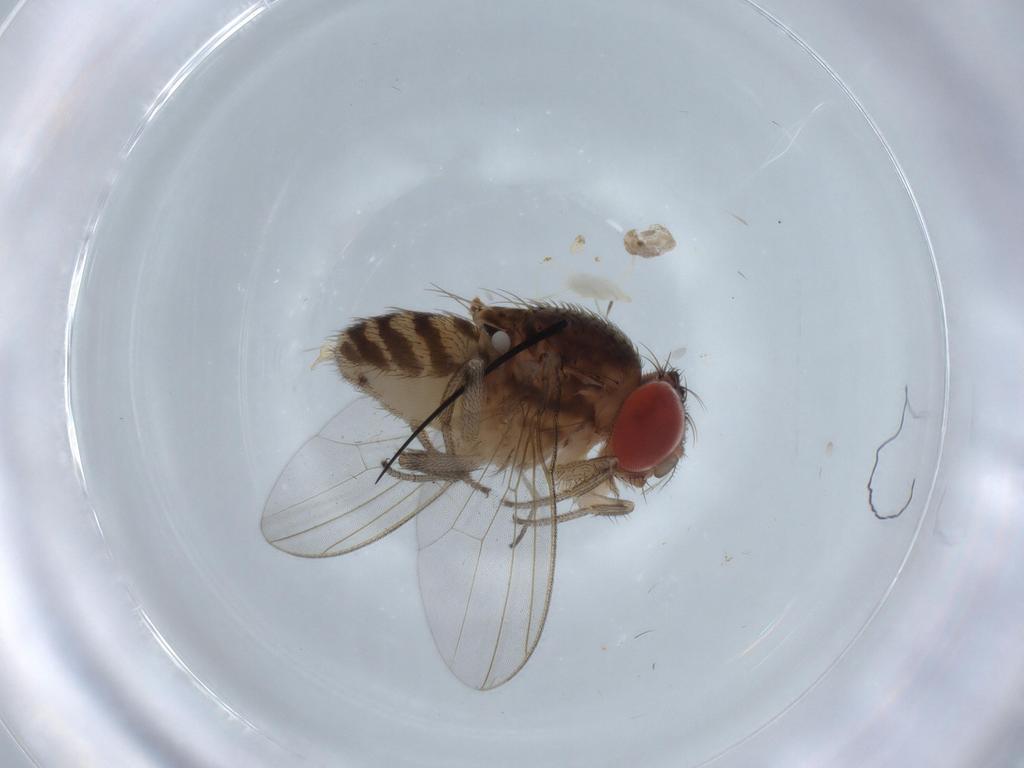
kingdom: Animalia
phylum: Arthropoda
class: Insecta
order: Diptera
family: Drosophilidae
